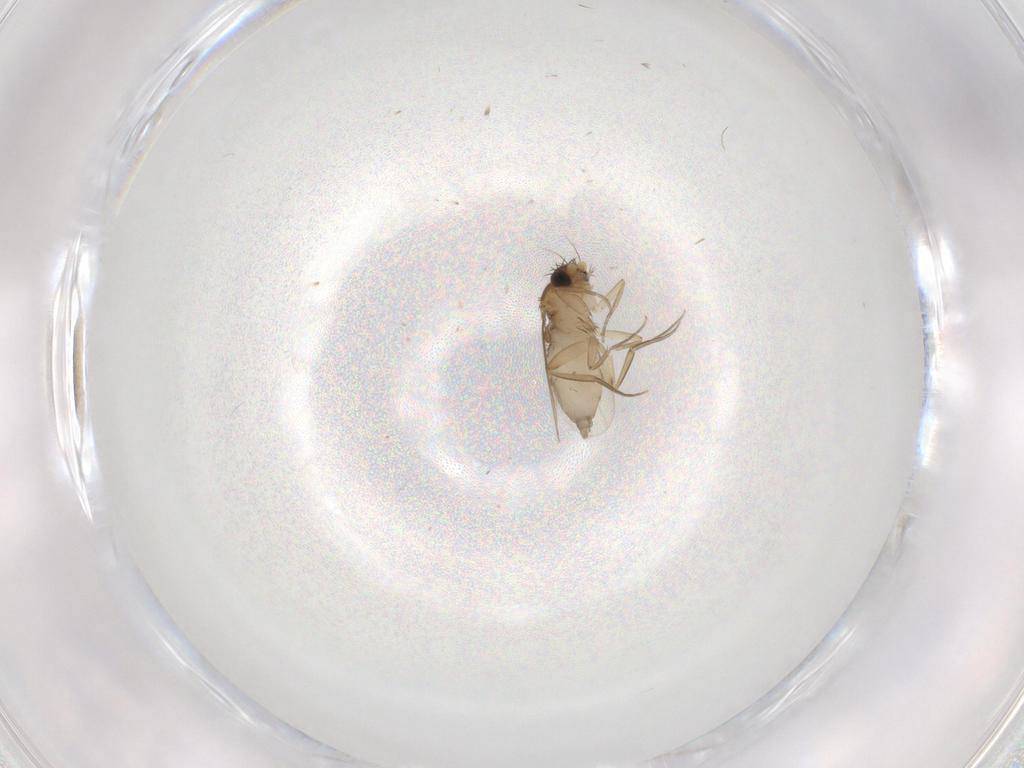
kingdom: Animalia
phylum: Arthropoda
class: Insecta
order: Diptera
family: Phoridae
